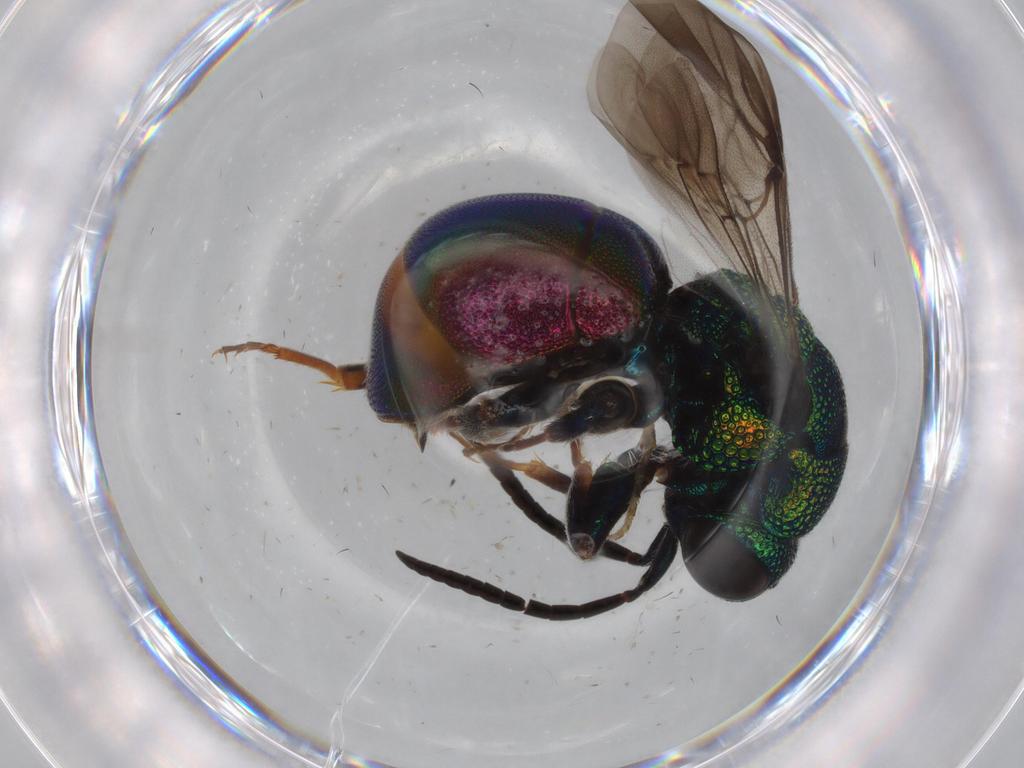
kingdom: Animalia
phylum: Arthropoda
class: Insecta
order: Hymenoptera
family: Chrysididae
